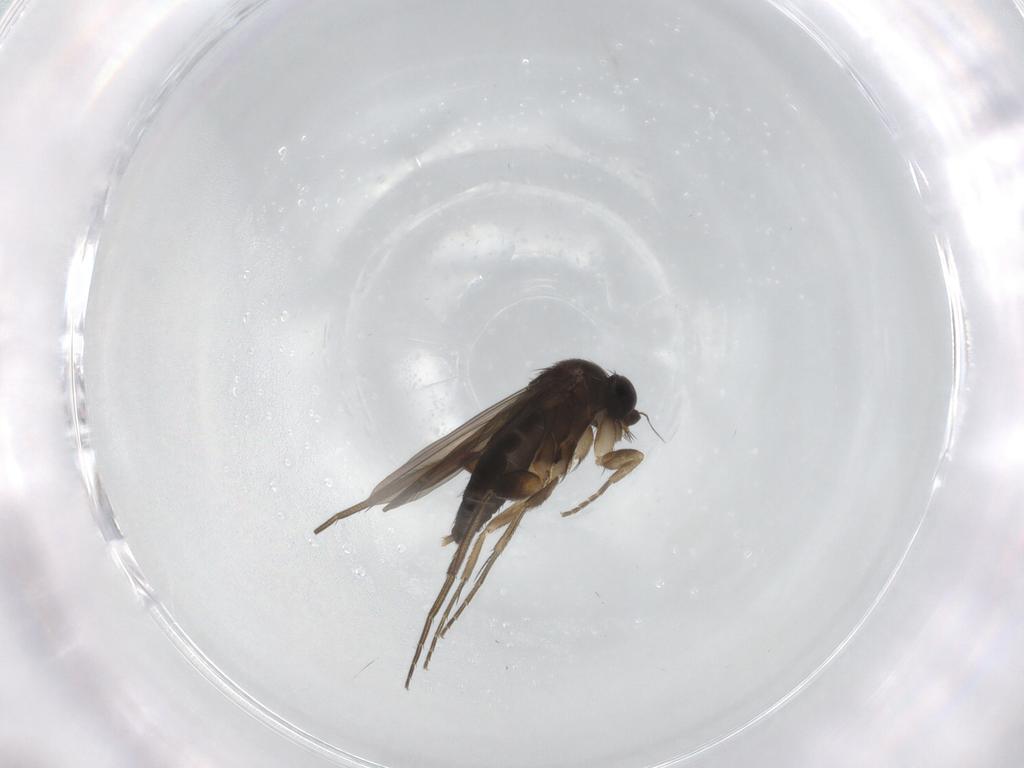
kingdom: Animalia
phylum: Arthropoda
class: Insecta
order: Diptera
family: Phoridae
